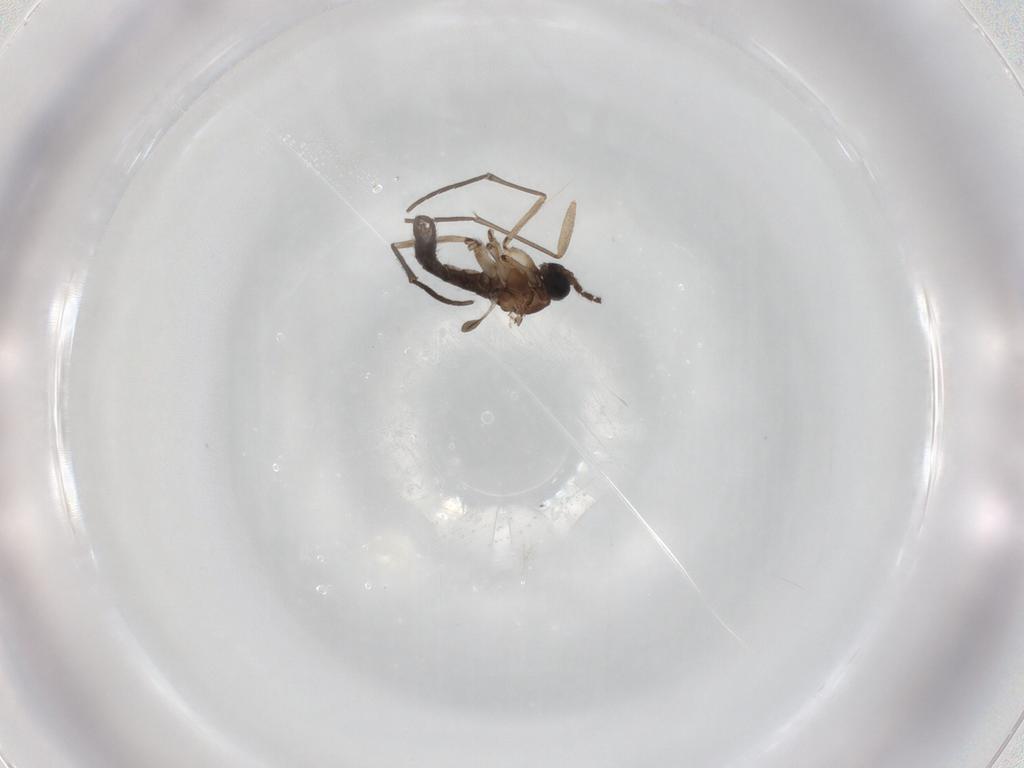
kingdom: Animalia
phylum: Arthropoda
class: Insecta
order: Diptera
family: Sciaridae
